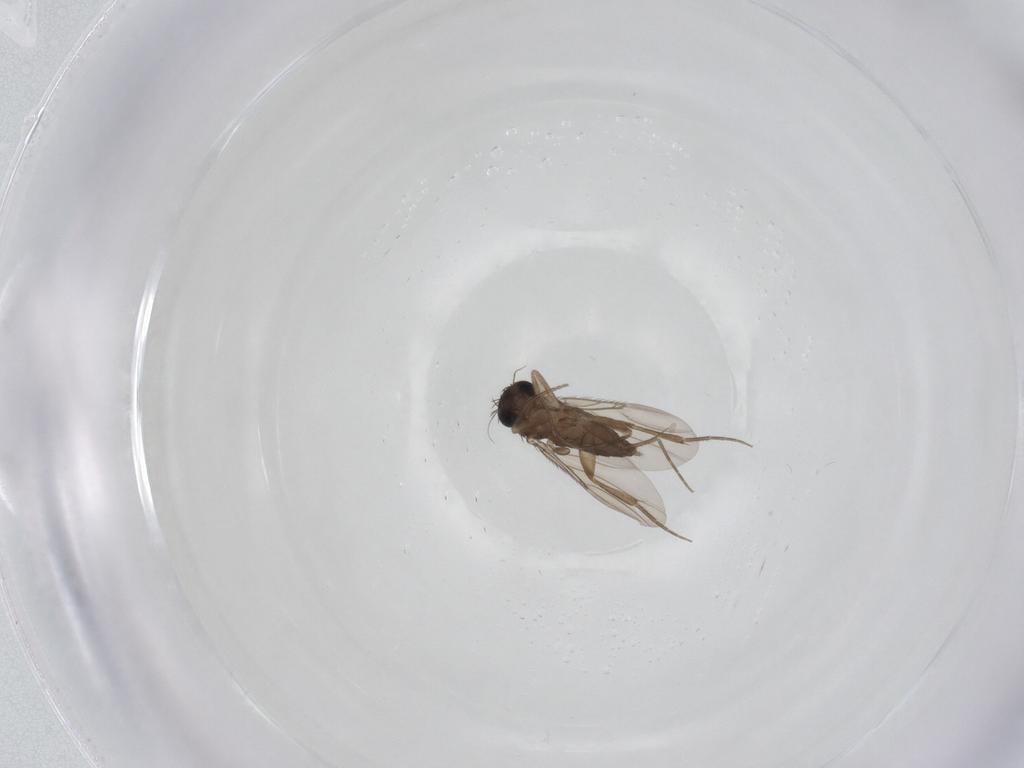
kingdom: Animalia
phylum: Arthropoda
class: Insecta
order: Diptera
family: Phoridae
